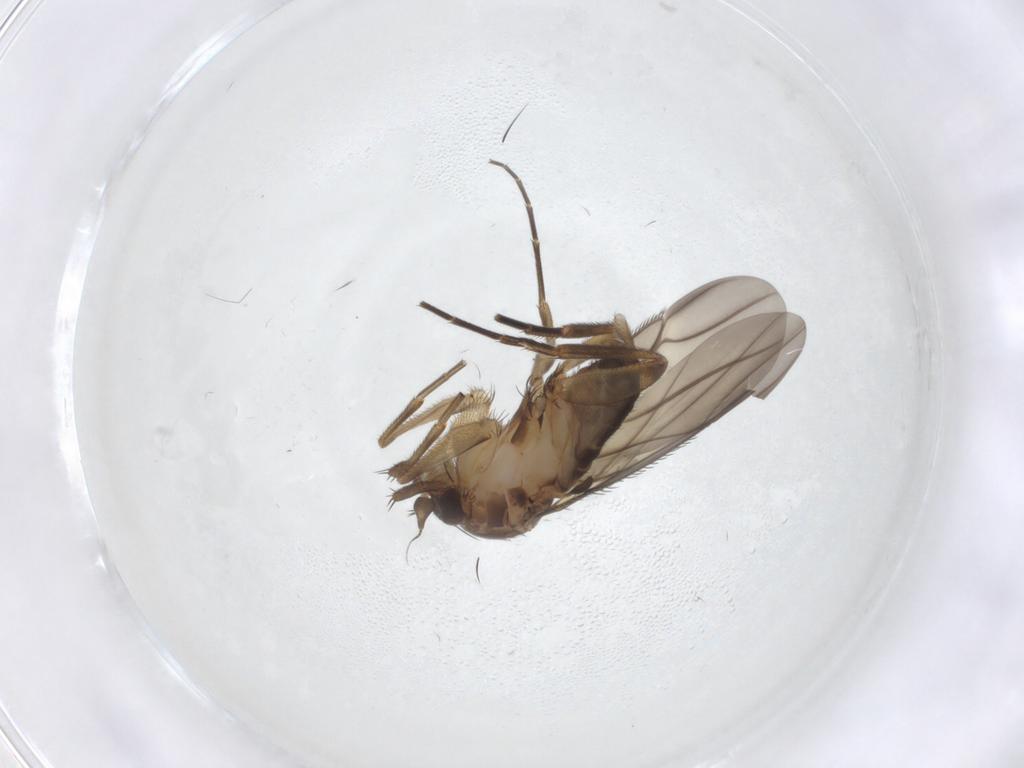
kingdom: Animalia
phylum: Arthropoda
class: Insecta
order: Diptera
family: Phoridae
